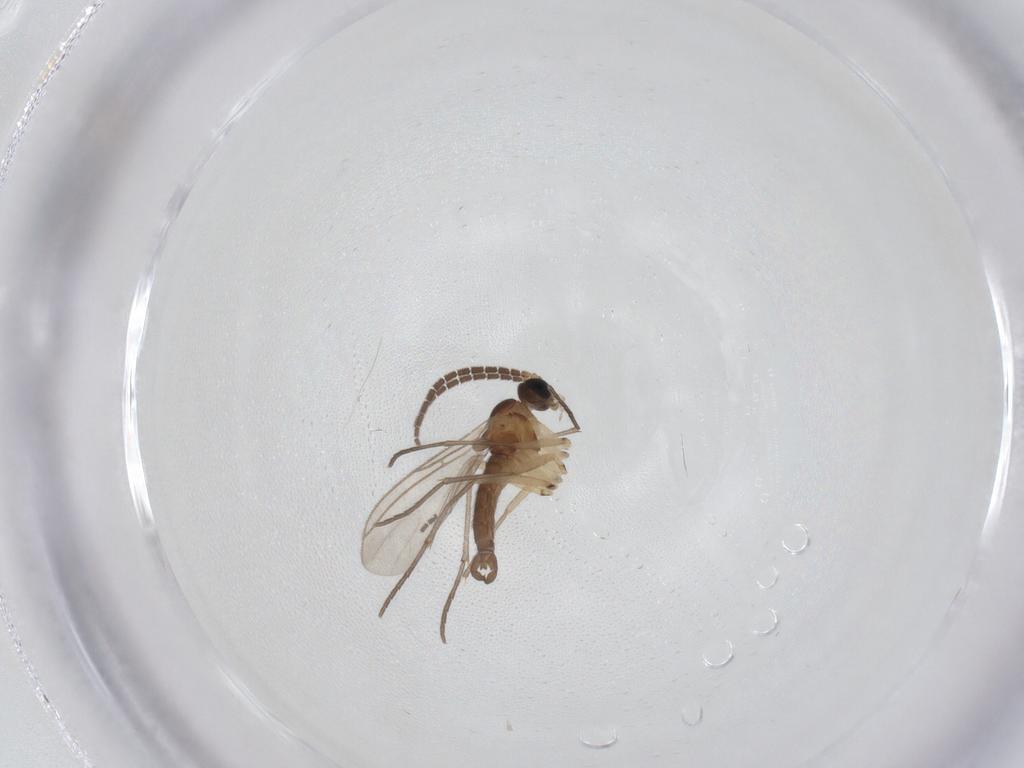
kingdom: Animalia
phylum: Arthropoda
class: Insecta
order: Diptera
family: Sciaridae
